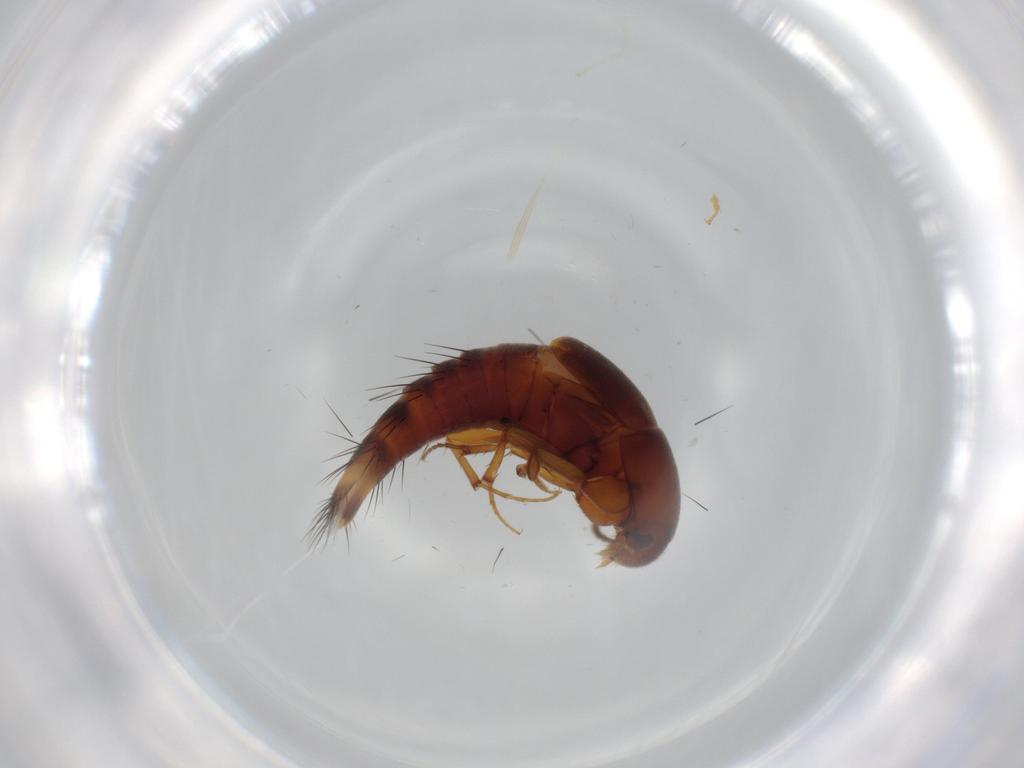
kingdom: Animalia
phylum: Arthropoda
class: Insecta
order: Coleoptera
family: Staphylinidae
